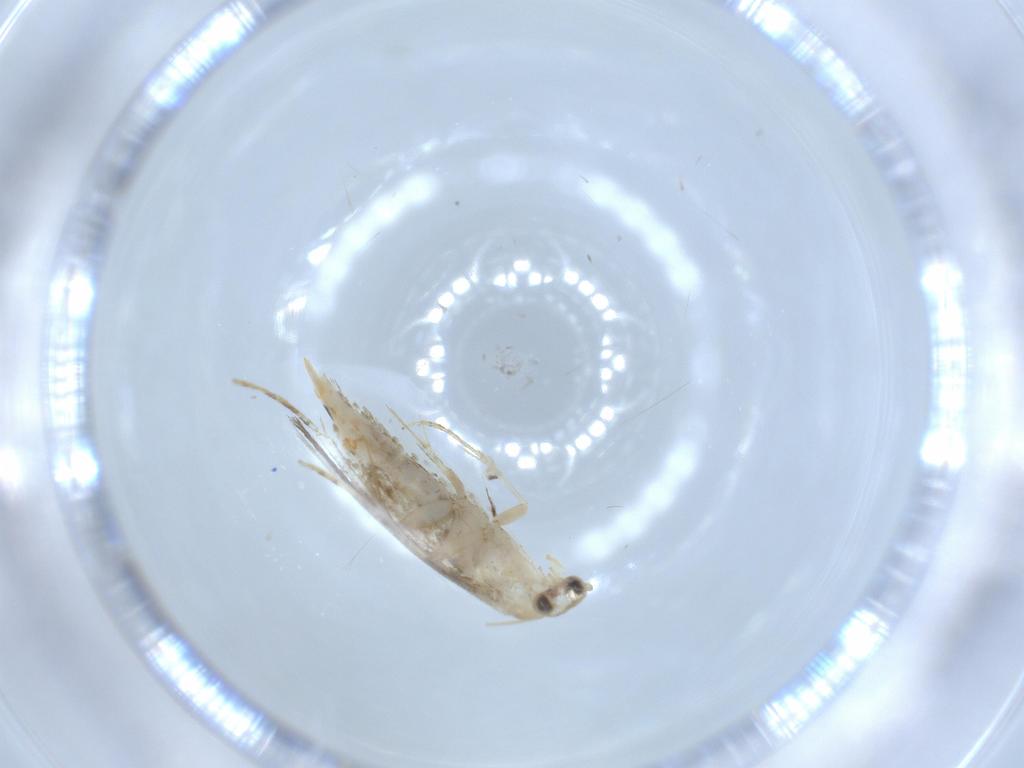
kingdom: Animalia
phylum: Arthropoda
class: Insecta
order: Lepidoptera
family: Tineidae
